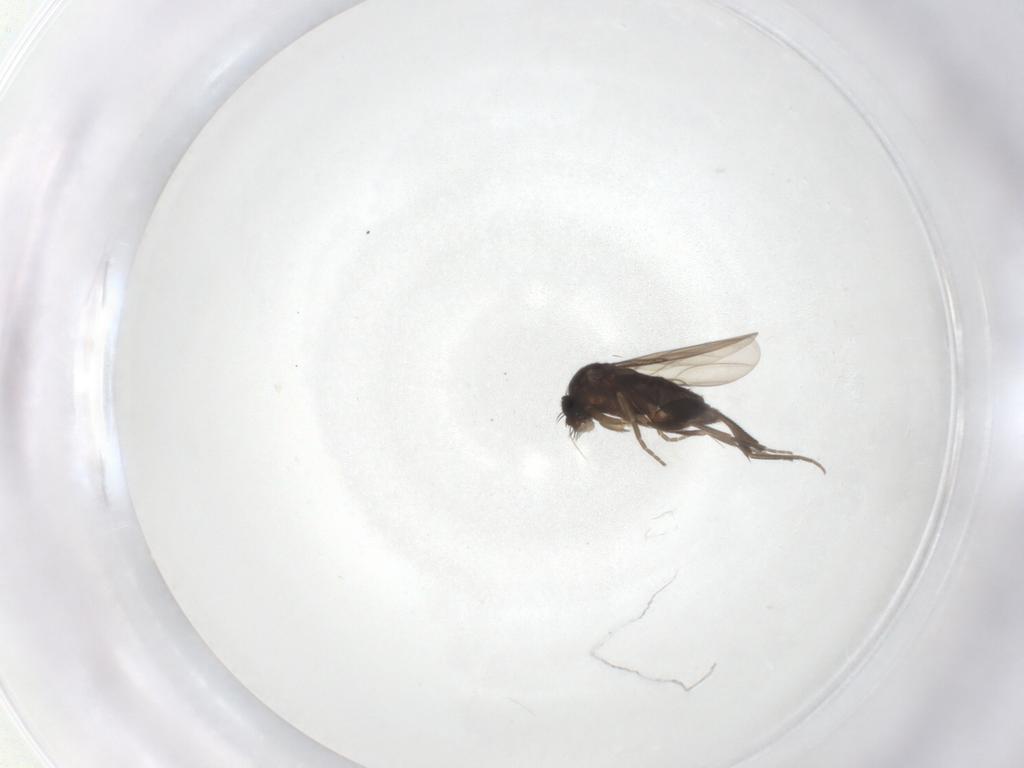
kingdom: Animalia
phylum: Arthropoda
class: Insecta
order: Diptera
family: Phoridae
